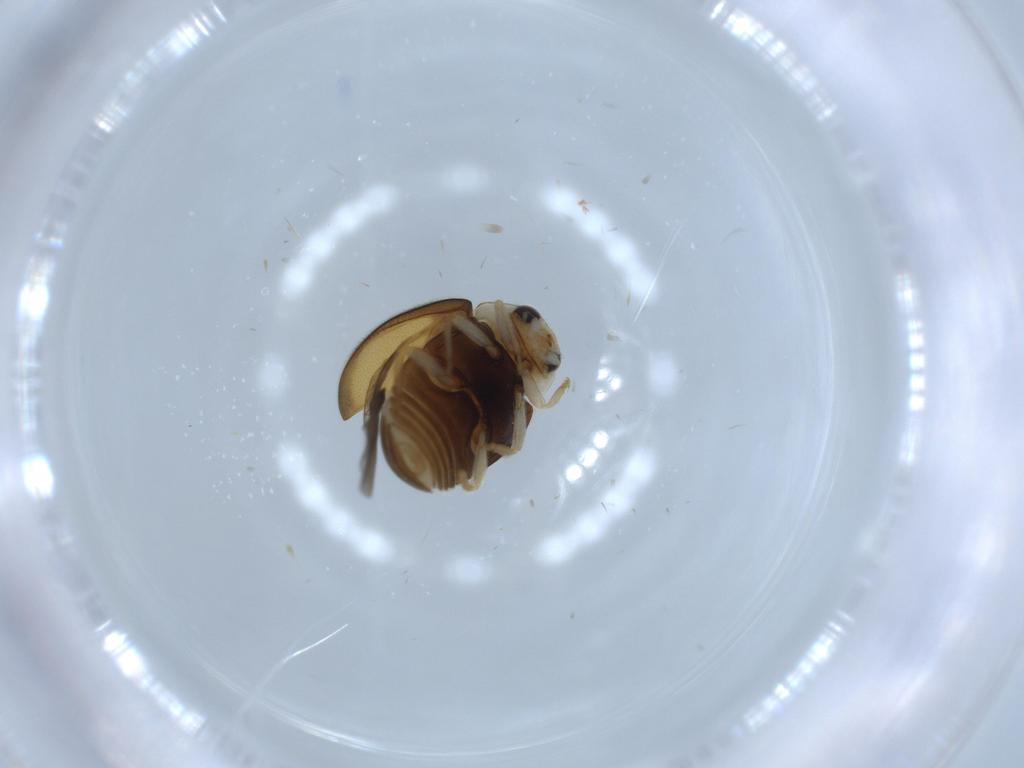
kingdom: Animalia
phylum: Arthropoda
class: Insecta
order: Coleoptera
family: Coccinellidae
